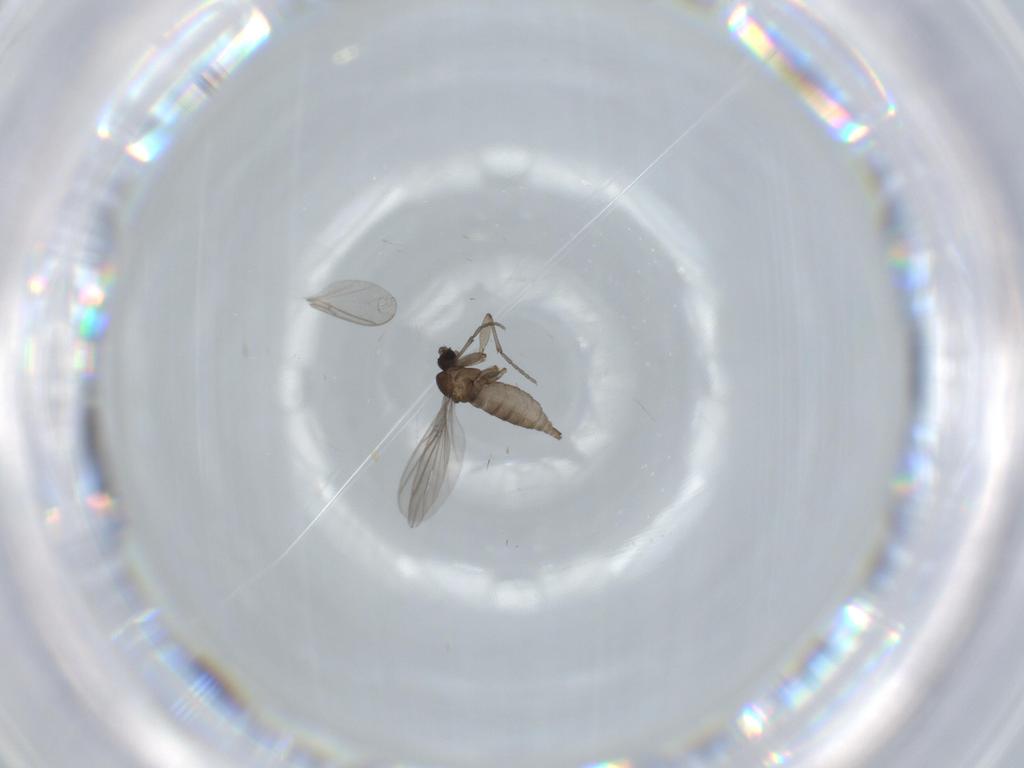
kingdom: Animalia
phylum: Arthropoda
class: Insecta
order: Diptera
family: Sciaridae
